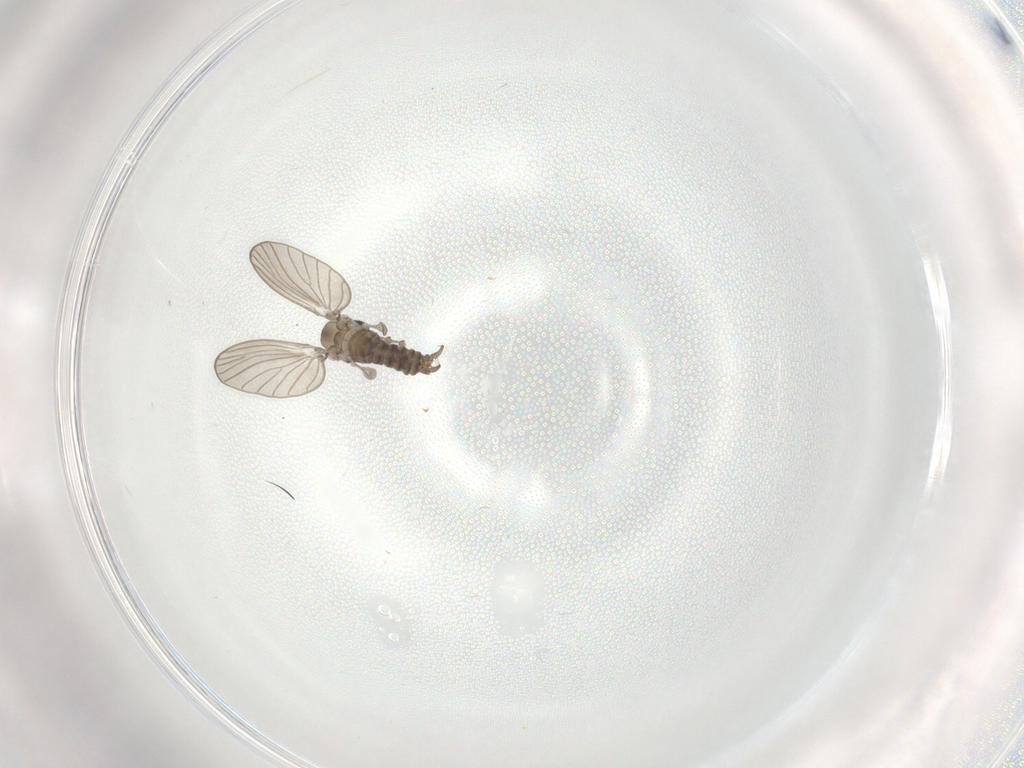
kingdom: Animalia
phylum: Arthropoda
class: Insecta
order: Diptera
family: Psychodidae
